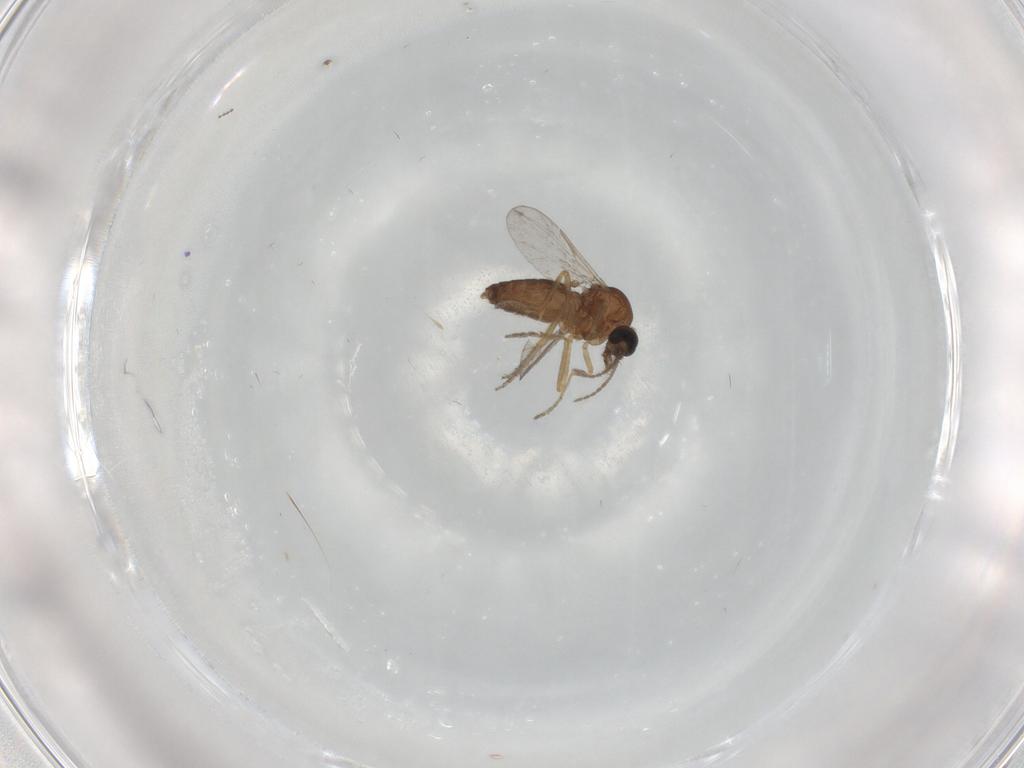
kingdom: Animalia
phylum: Arthropoda
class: Insecta
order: Diptera
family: Ceratopogonidae
